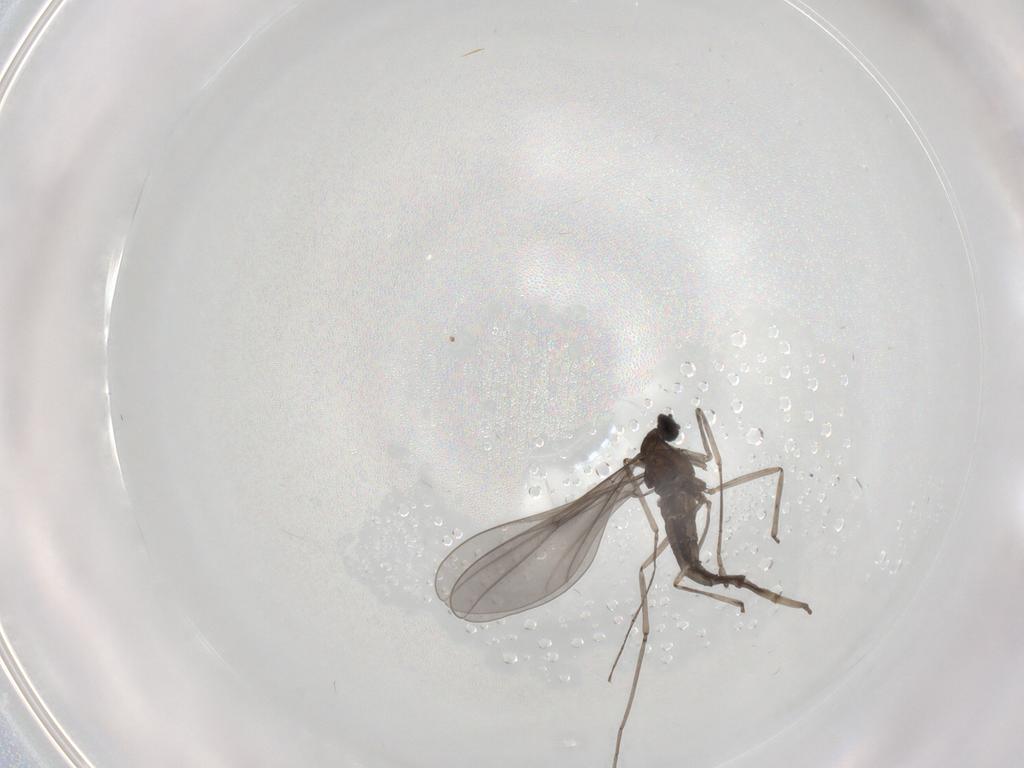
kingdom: Animalia
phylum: Arthropoda
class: Insecta
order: Diptera
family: Cecidomyiidae
